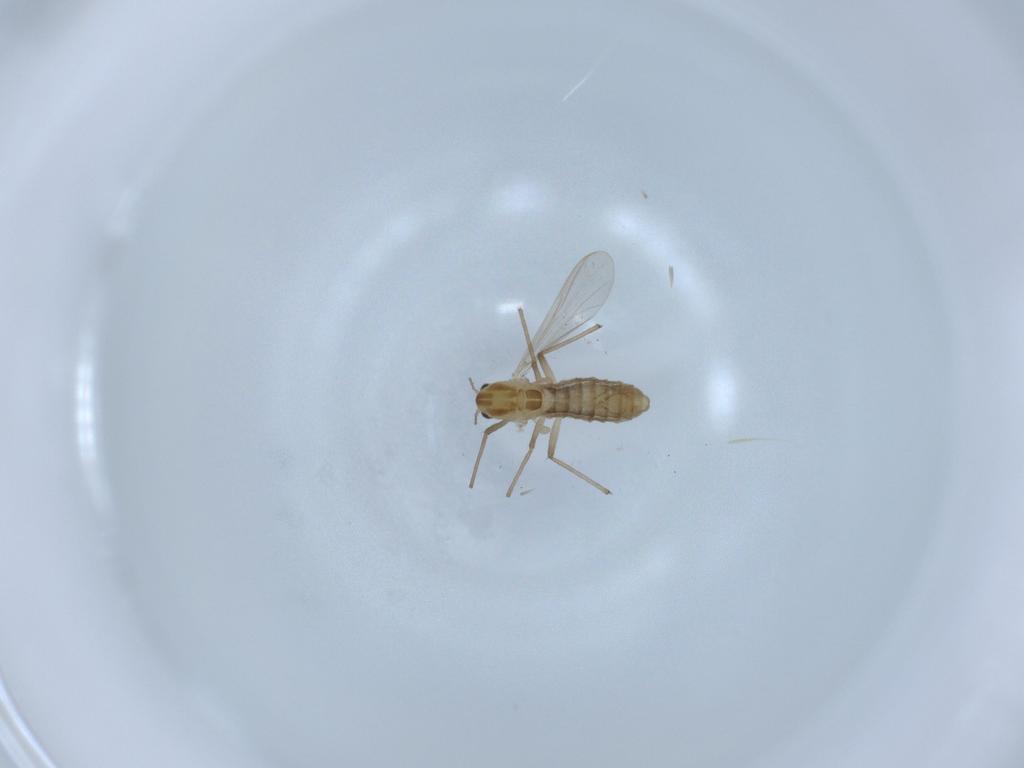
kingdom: Animalia
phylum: Arthropoda
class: Insecta
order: Diptera
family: Chironomidae
